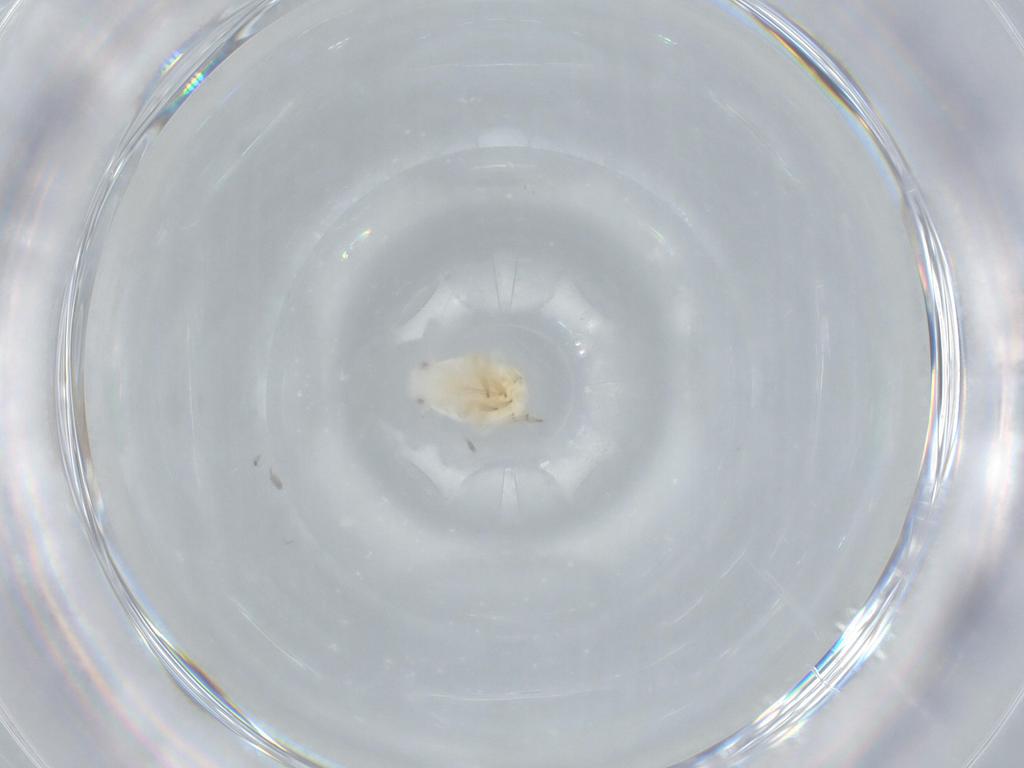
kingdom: Animalia
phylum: Arthropoda
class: Insecta
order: Hemiptera
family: Flatidae
